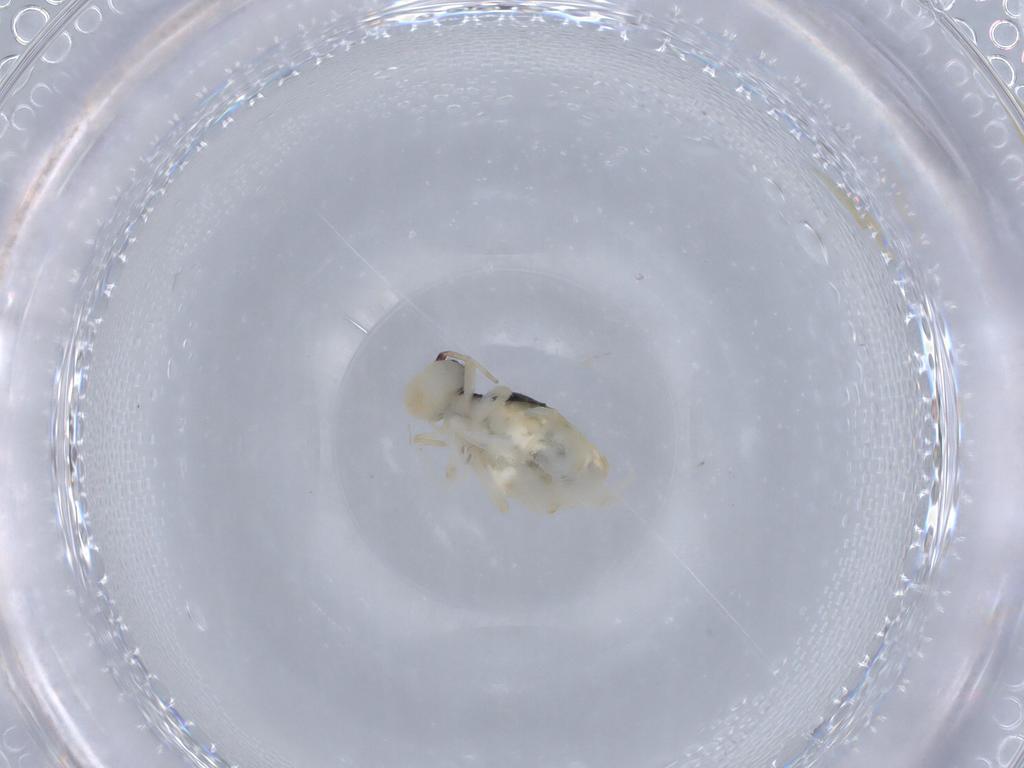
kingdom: Animalia
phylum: Arthropoda
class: Collembola
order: Symphypleona
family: Bourletiellidae
